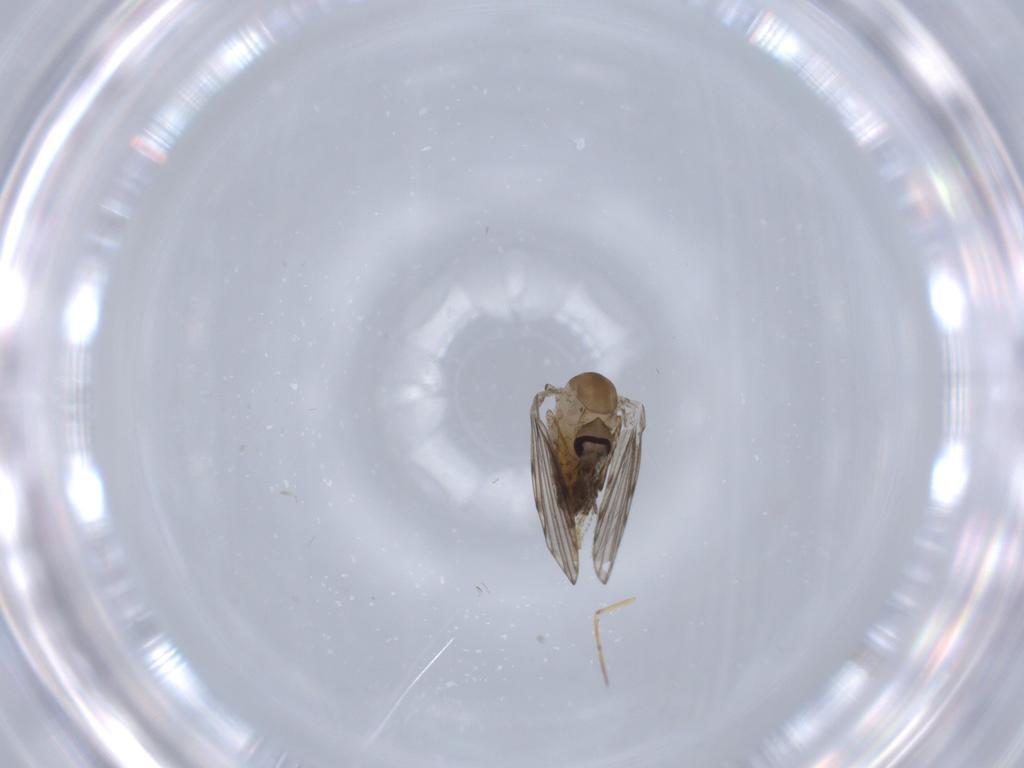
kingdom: Animalia
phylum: Arthropoda
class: Insecta
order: Diptera
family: Psychodidae
